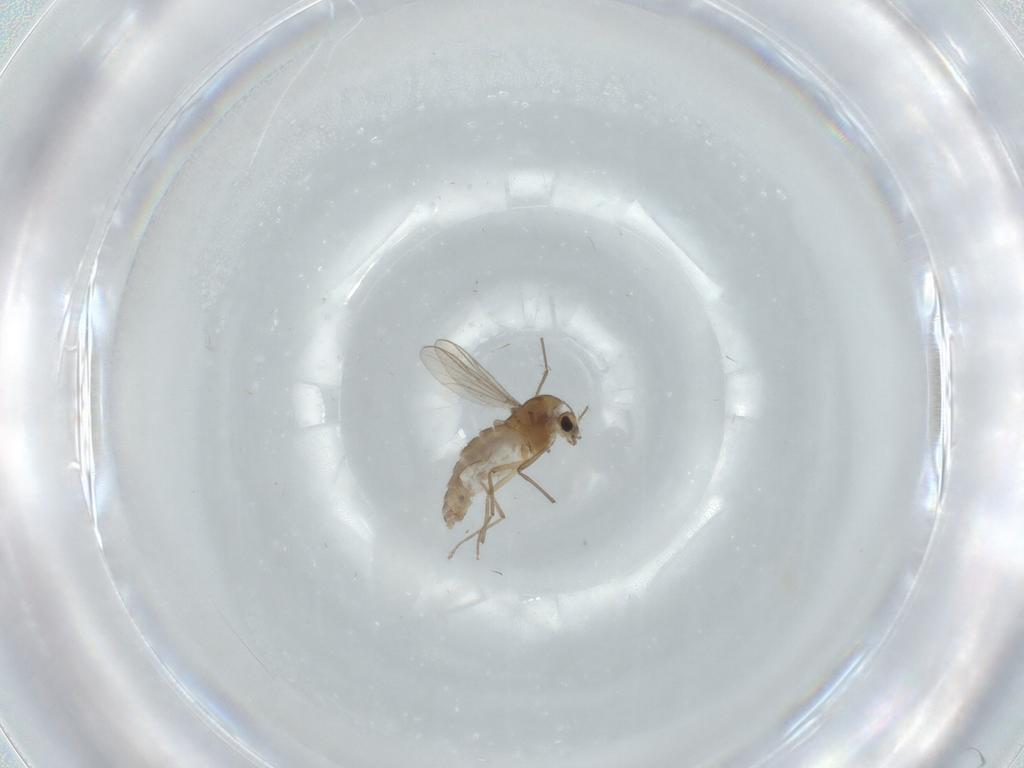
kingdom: Animalia
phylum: Arthropoda
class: Insecta
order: Diptera
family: Chironomidae
